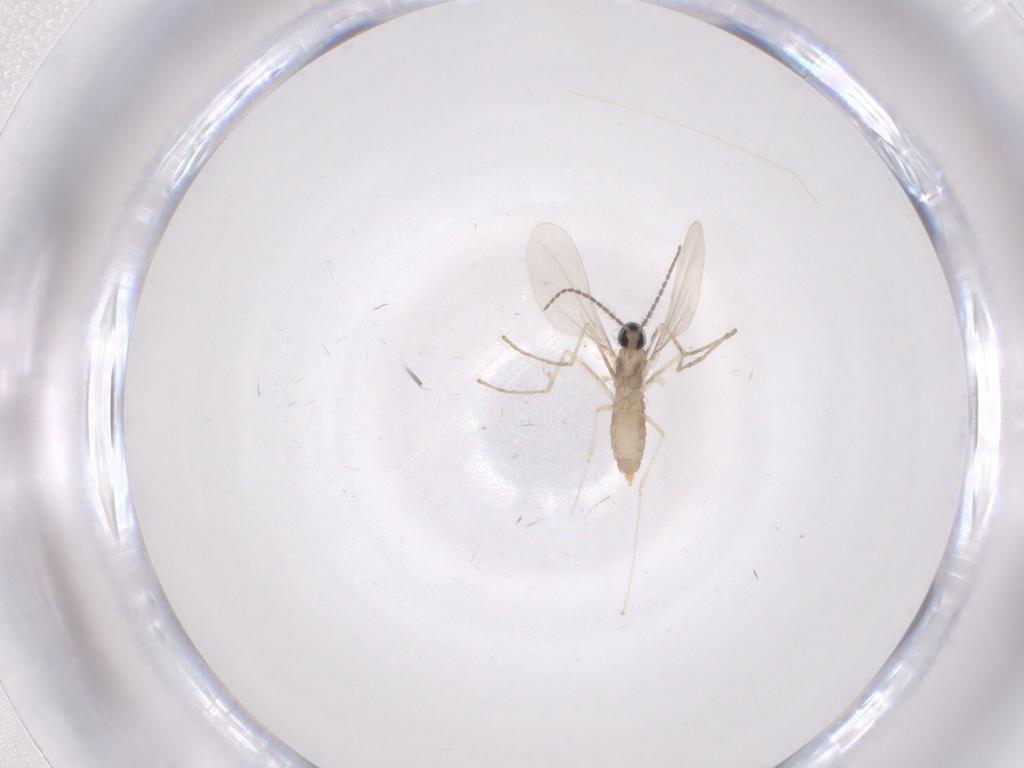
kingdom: Animalia
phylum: Arthropoda
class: Insecta
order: Diptera
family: Cecidomyiidae
